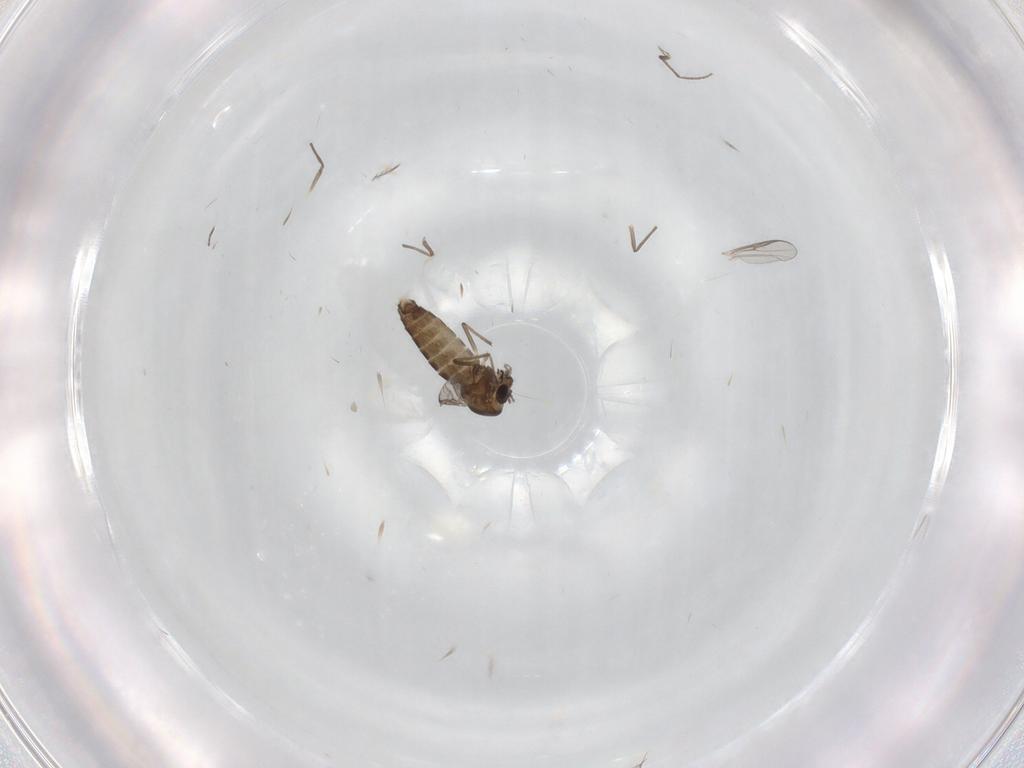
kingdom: Animalia
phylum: Arthropoda
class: Insecta
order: Diptera
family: Chironomidae
